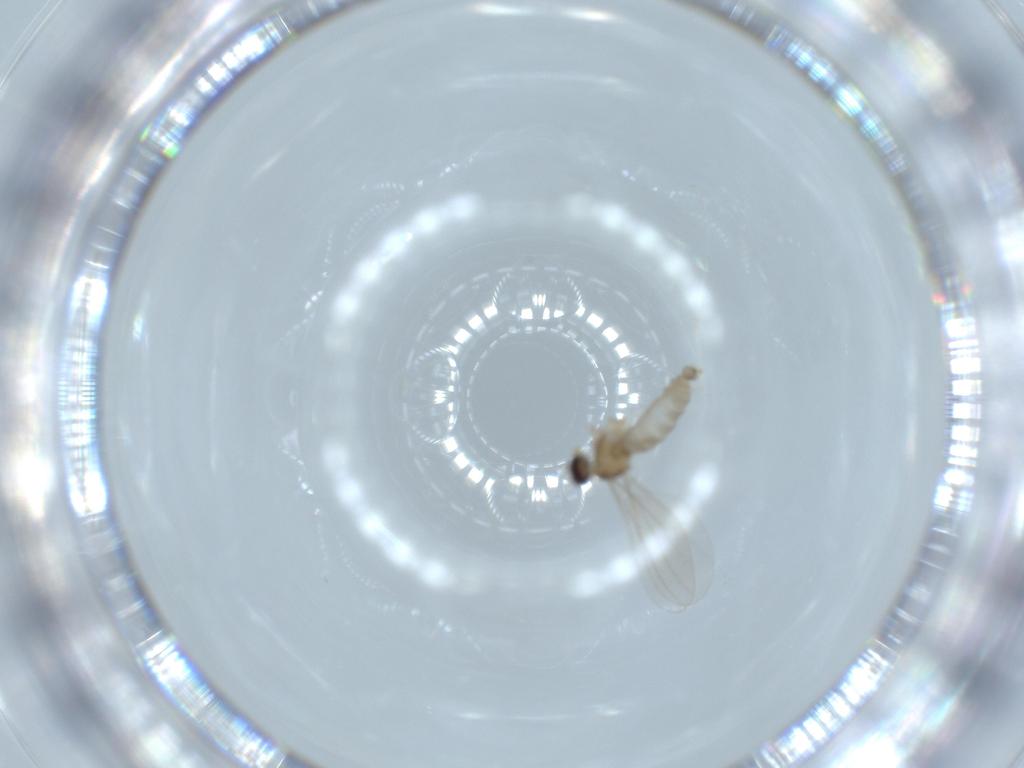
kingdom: Animalia
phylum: Arthropoda
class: Insecta
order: Diptera
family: Cecidomyiidae
